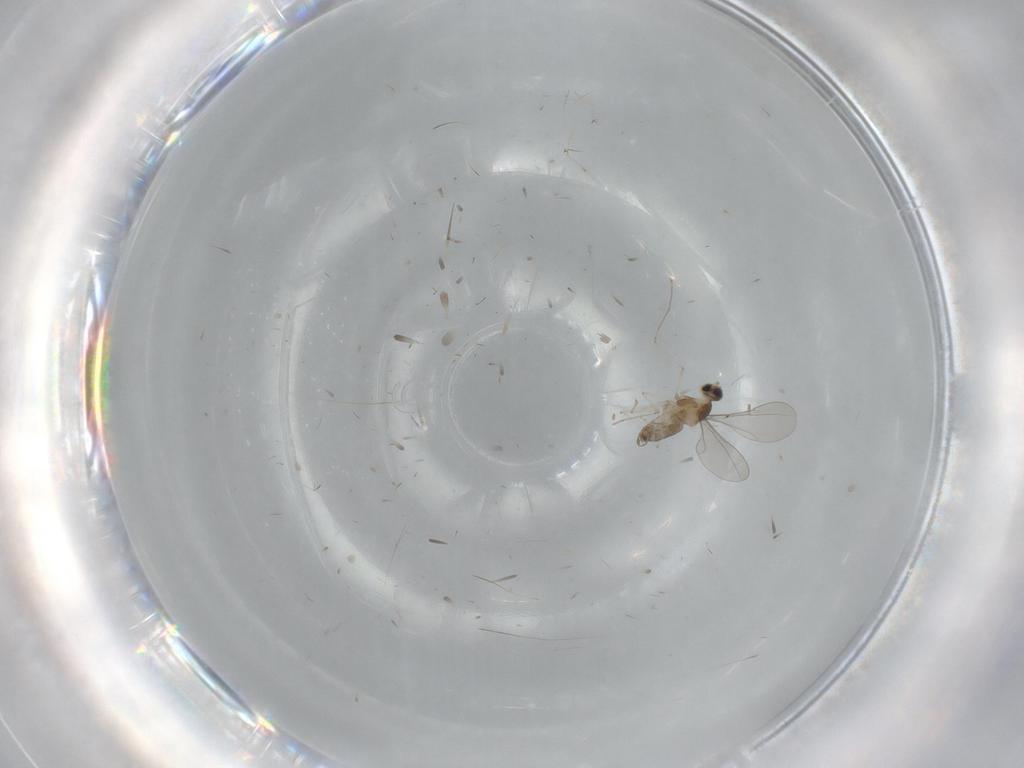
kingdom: Animalia
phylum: Arthropoda
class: Insecta
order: Diptera
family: Cecidomyiidae
